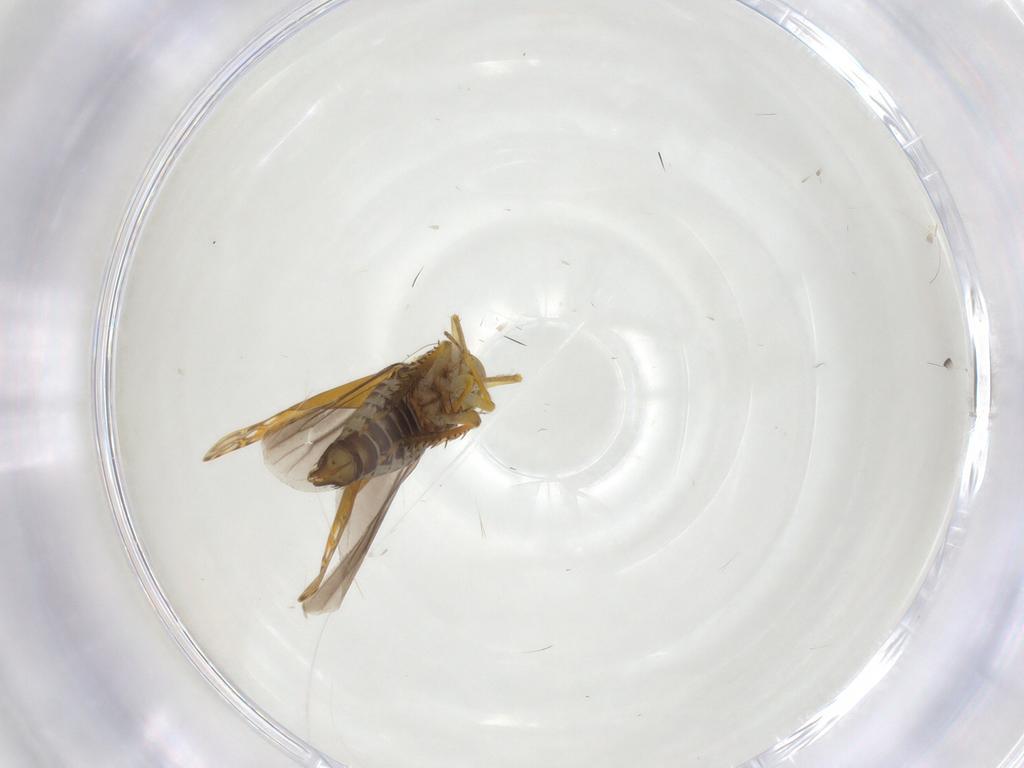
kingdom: Animalia
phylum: Arthropoda
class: Insecta
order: Hemiptera
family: Cicadellidae
